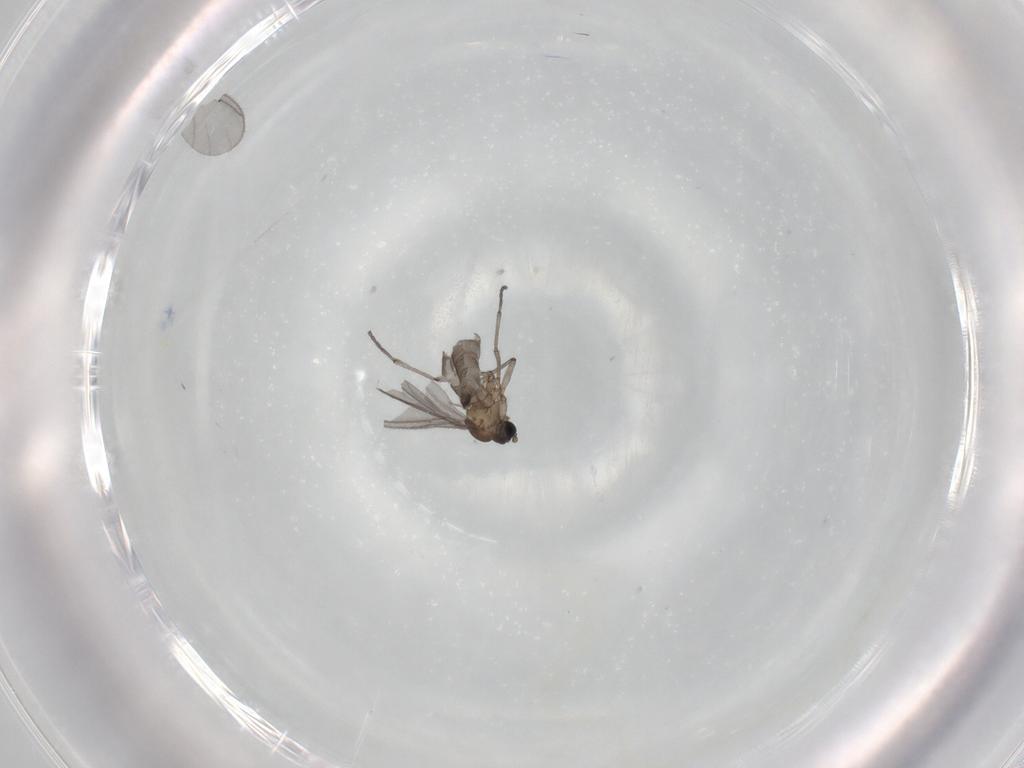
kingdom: Animalia
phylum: Arthropoda
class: Insecta
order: Diptera
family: Sciaridae
